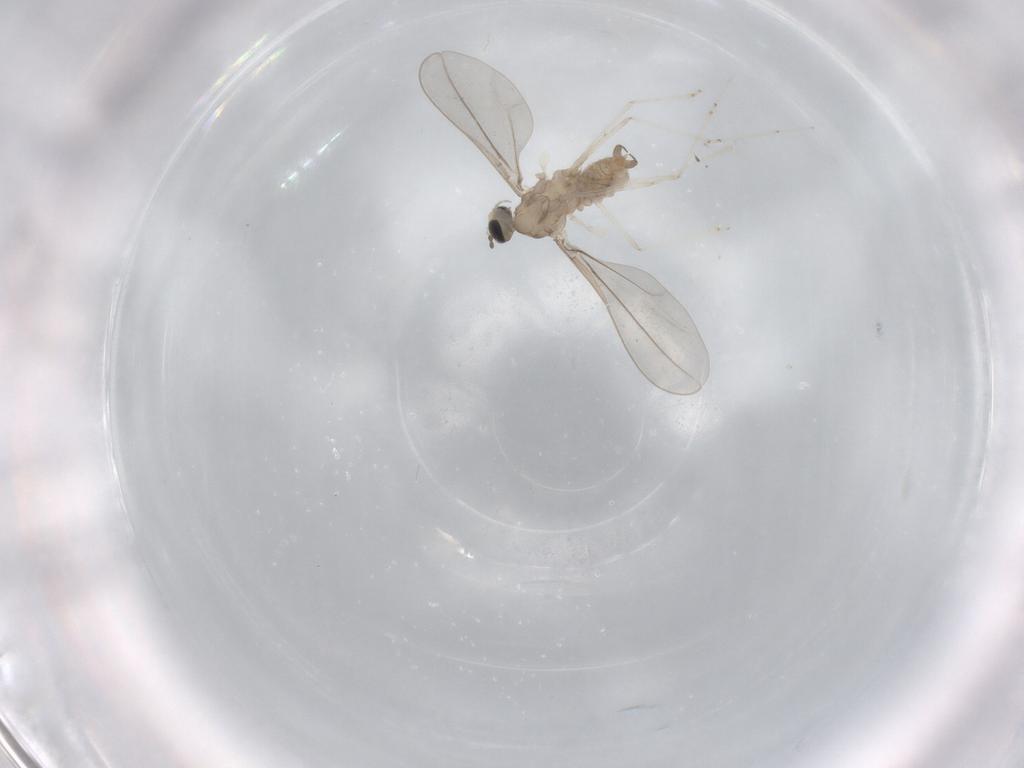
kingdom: Animalia
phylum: Arthropoda
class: Insecta
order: Diptera
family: Cecidomyiidae
